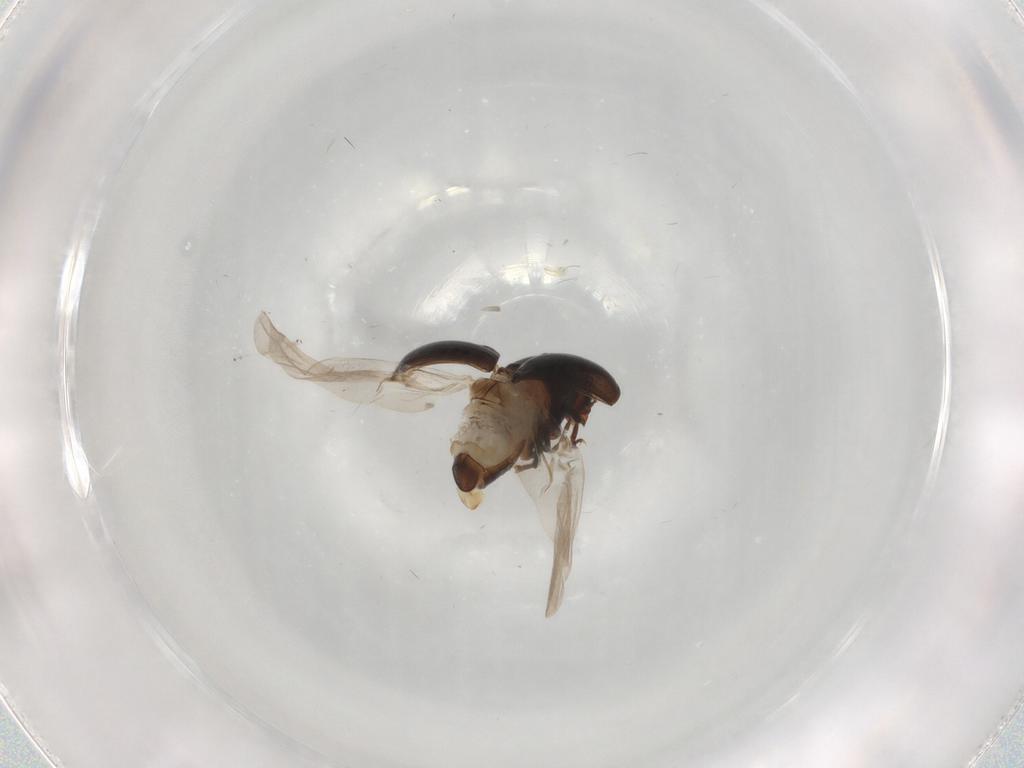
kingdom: Animalia
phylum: Arthropoda
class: Insecta
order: Coleoptera
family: Anthribidae
